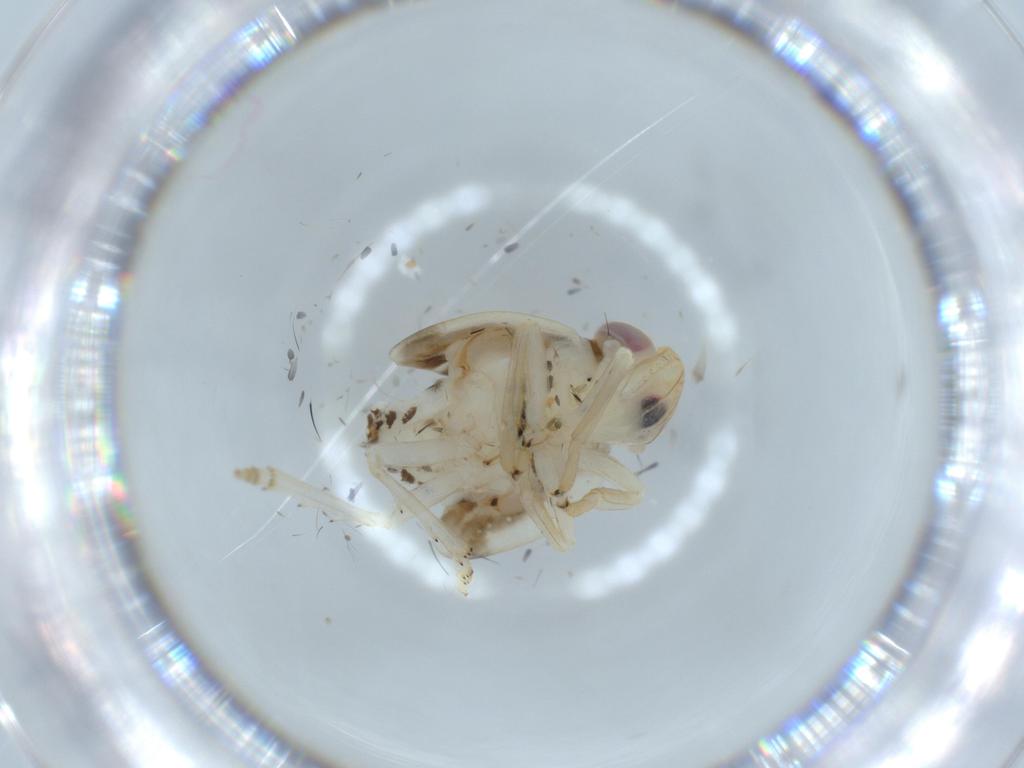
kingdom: Animalia
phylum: Arthropoda
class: Insecta
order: Hemiptera
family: Nogodinidae
